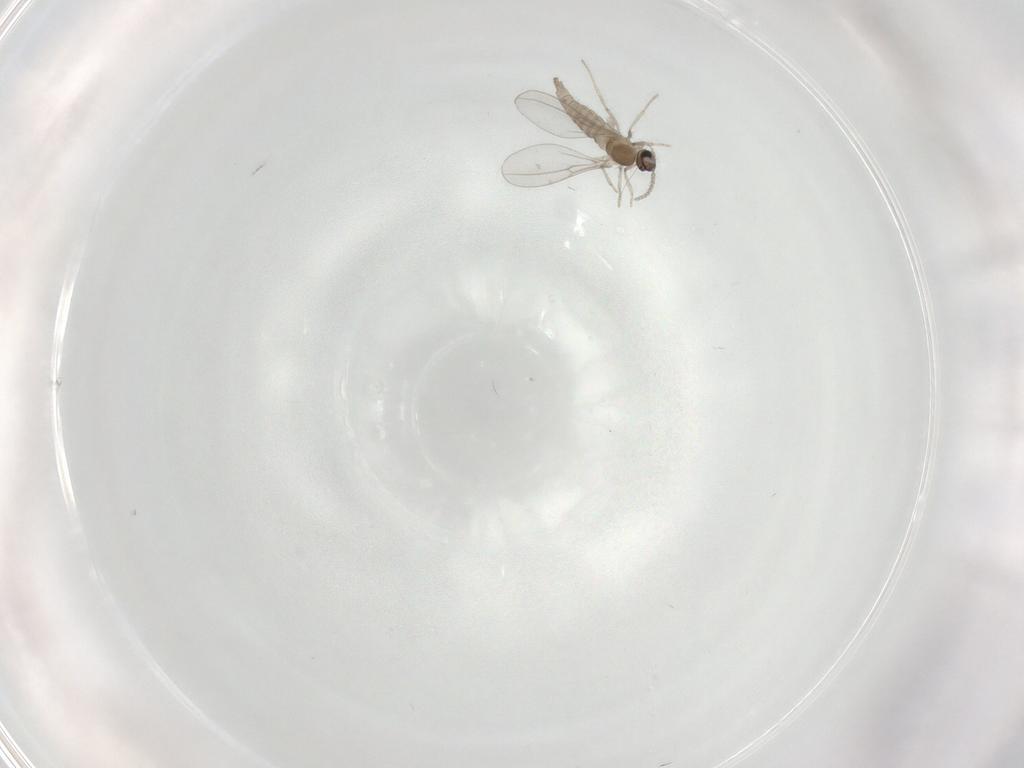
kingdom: Animalia
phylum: Arthropoda
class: Insecta
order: Diptera
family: Cecidomyiidae
